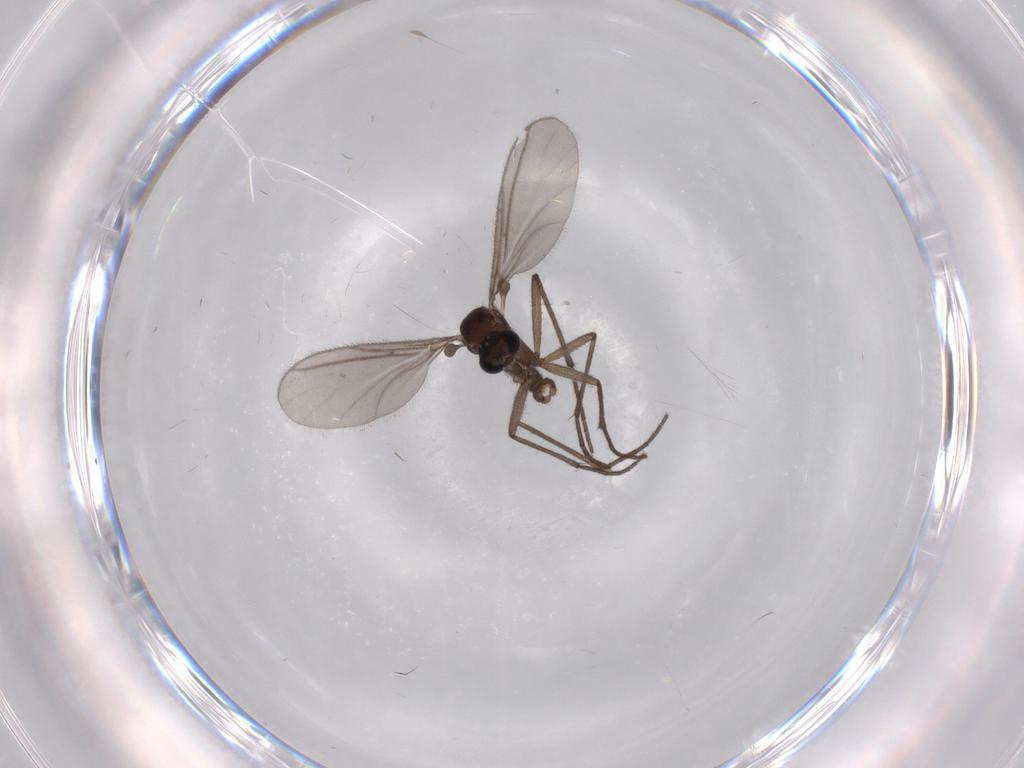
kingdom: Animalia
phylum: Arthropoda
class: Insecta
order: Diptera
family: Sciaridae
